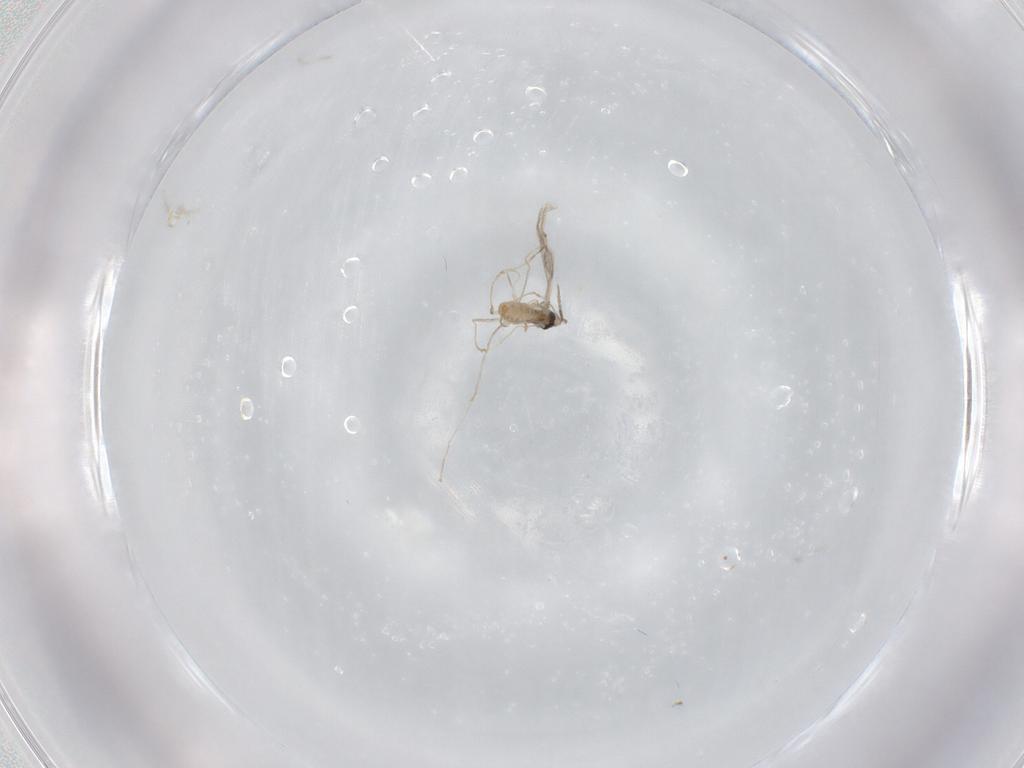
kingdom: Animalia
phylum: Arthropoda
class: Insecta
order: Diptera
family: Cecidomyiidae
